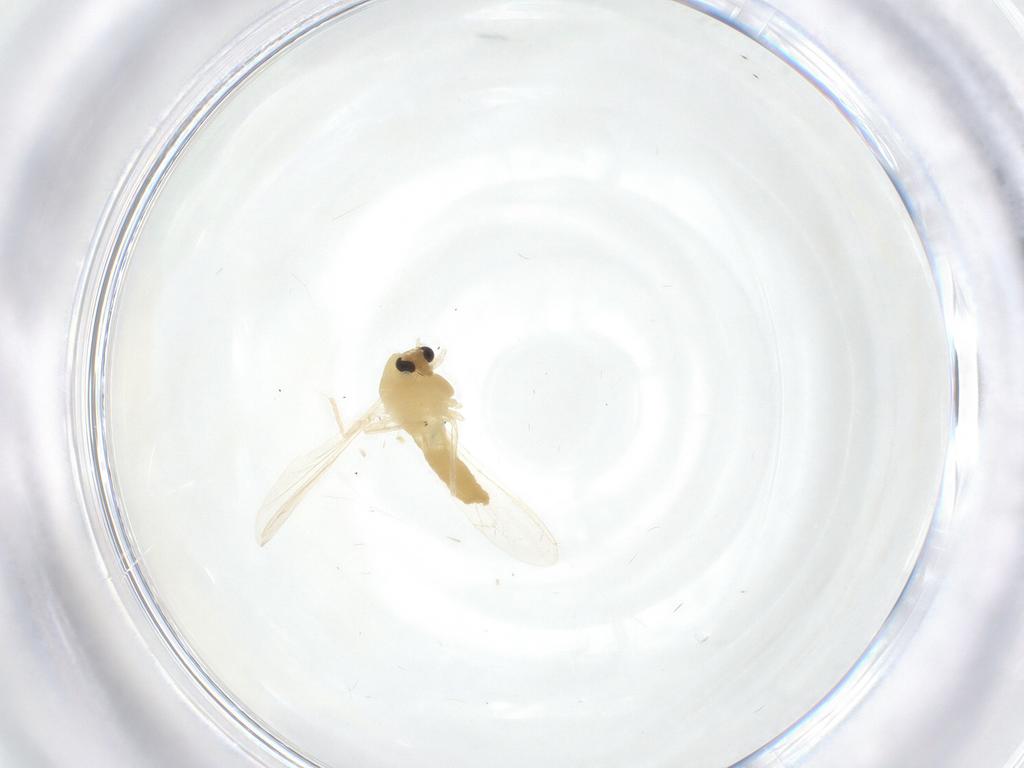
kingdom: Animalia
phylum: Arthropoda
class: Insecta
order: Diptera
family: Chironomidae
